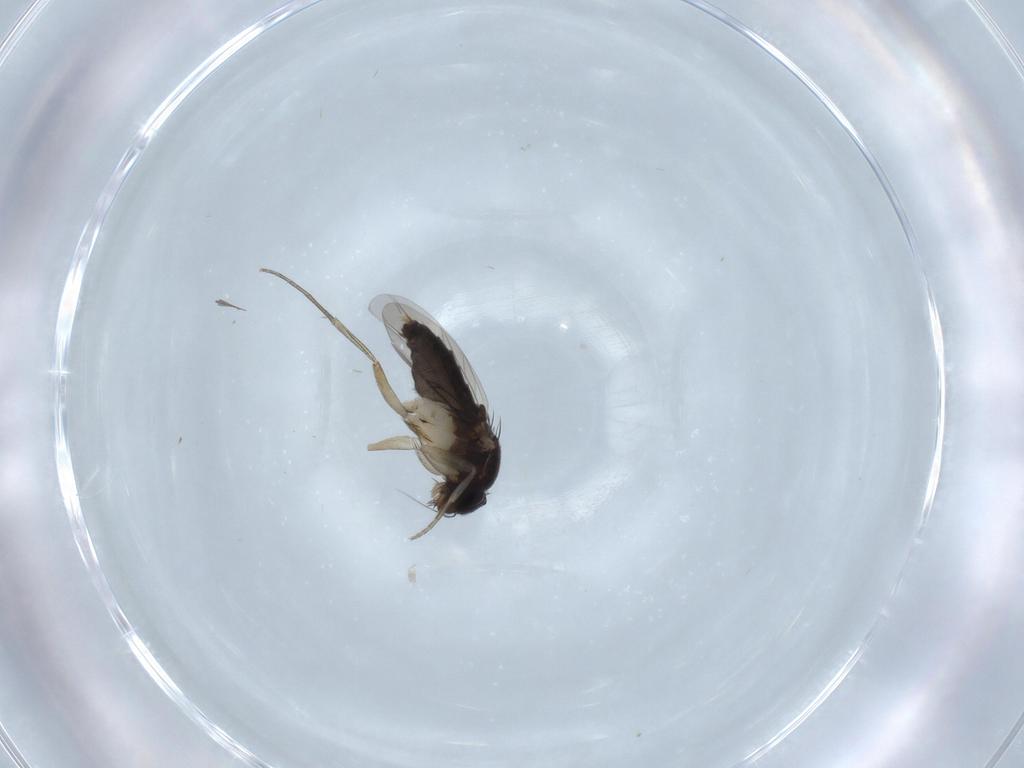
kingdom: Animalia
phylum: Arthropoda
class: Insecta
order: Diptera
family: Phoridae
